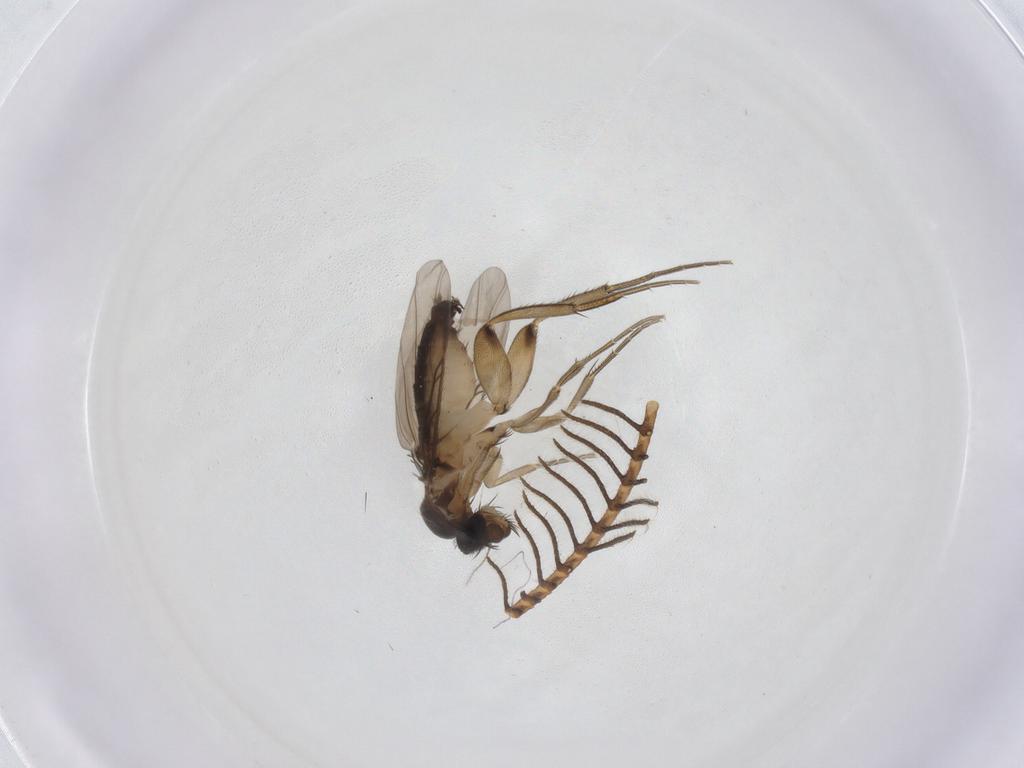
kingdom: Animalia
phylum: Arthropoda
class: Insecta
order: Diptera
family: Phoridae
